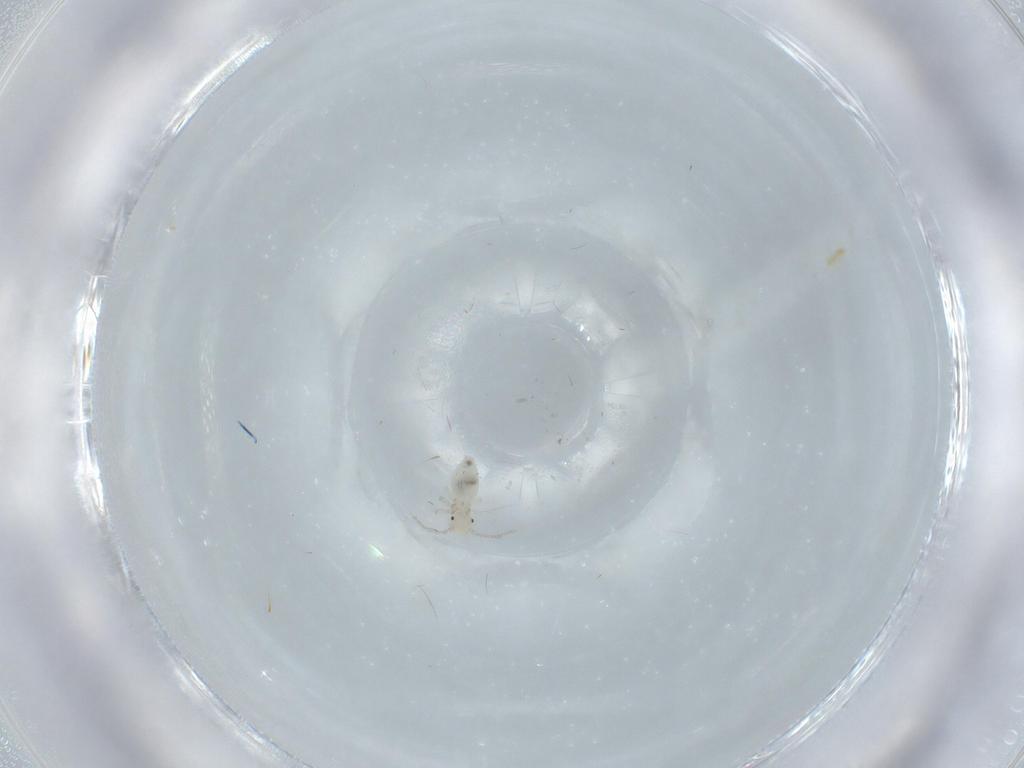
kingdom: Animalia
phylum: Arthropoda
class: Insecta
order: Psocodea
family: Caeciliusidae
